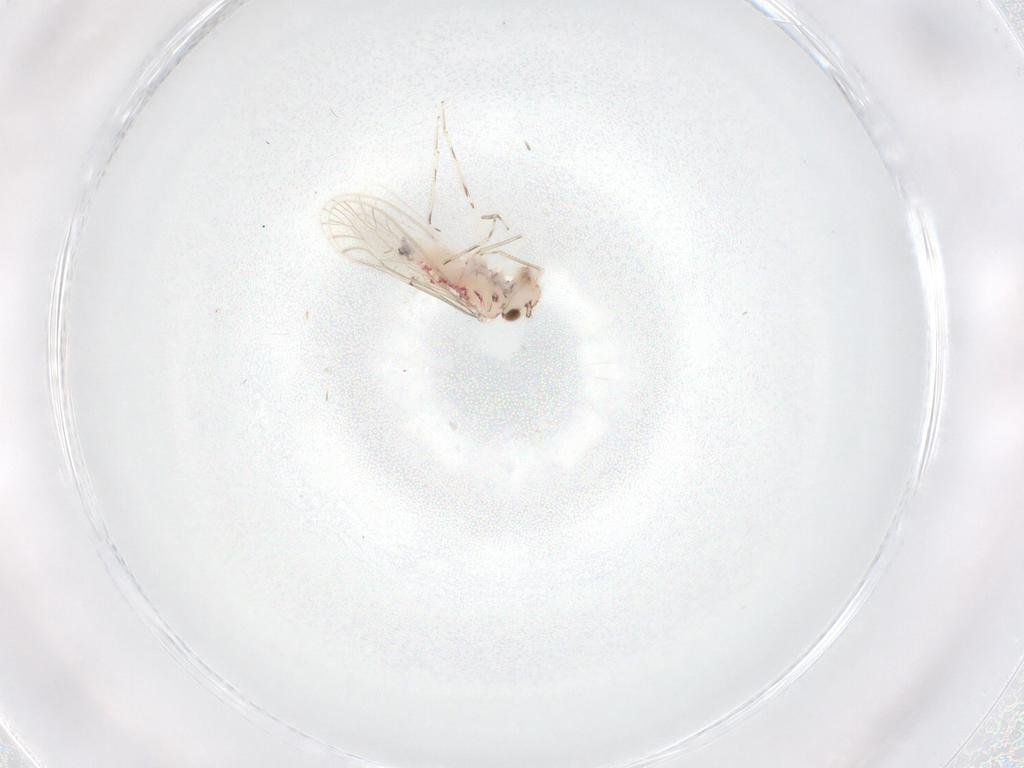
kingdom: Animalia
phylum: Arthropoda
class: Insecta
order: Psocodea
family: Caeciliusidae
